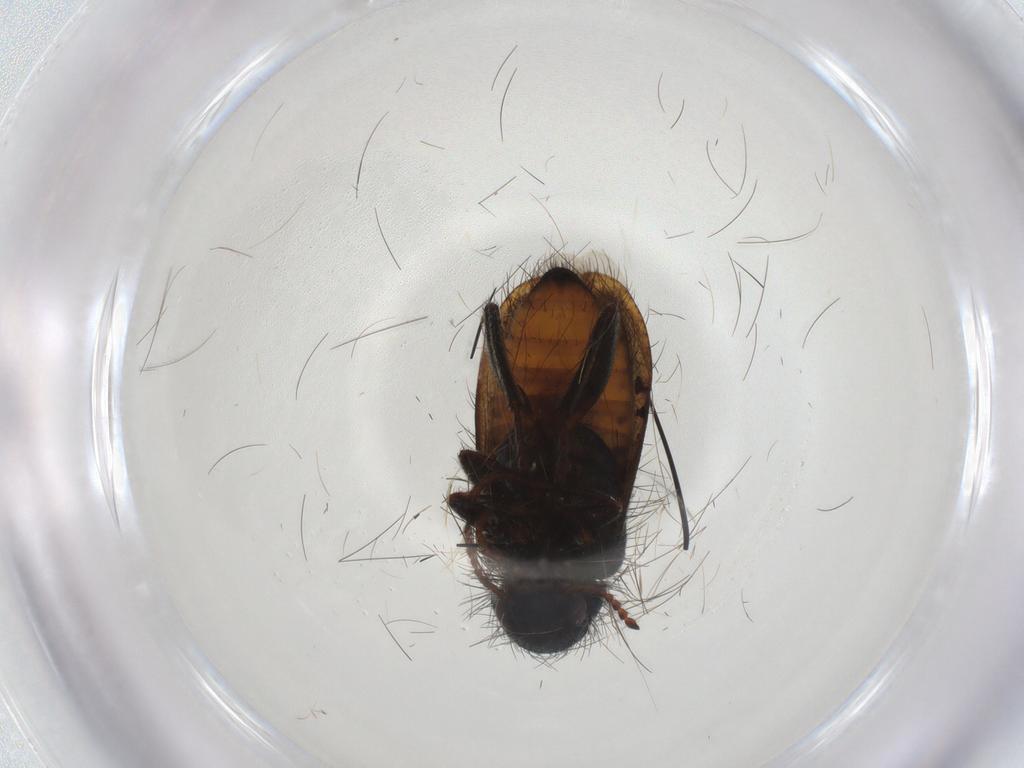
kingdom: Animalia
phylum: Arthropoda
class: Insecta
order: Coleoptera
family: Melyridae
